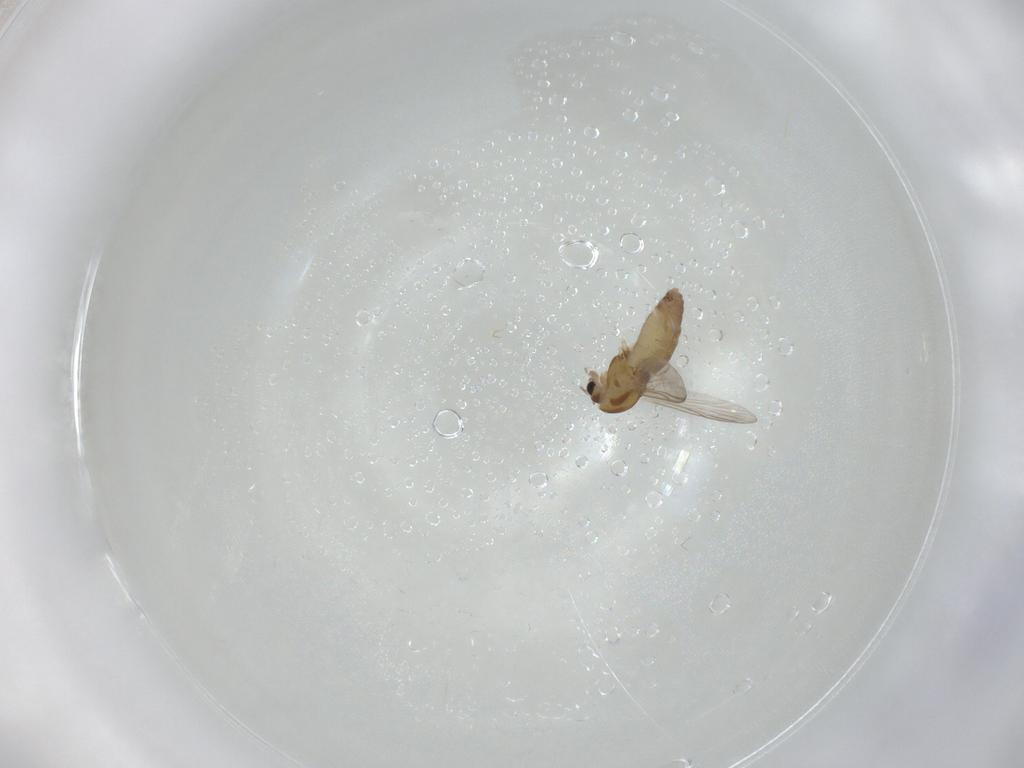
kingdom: Animalia
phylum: Arthropoda
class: Insecta
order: Diptera
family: Chironomidae
